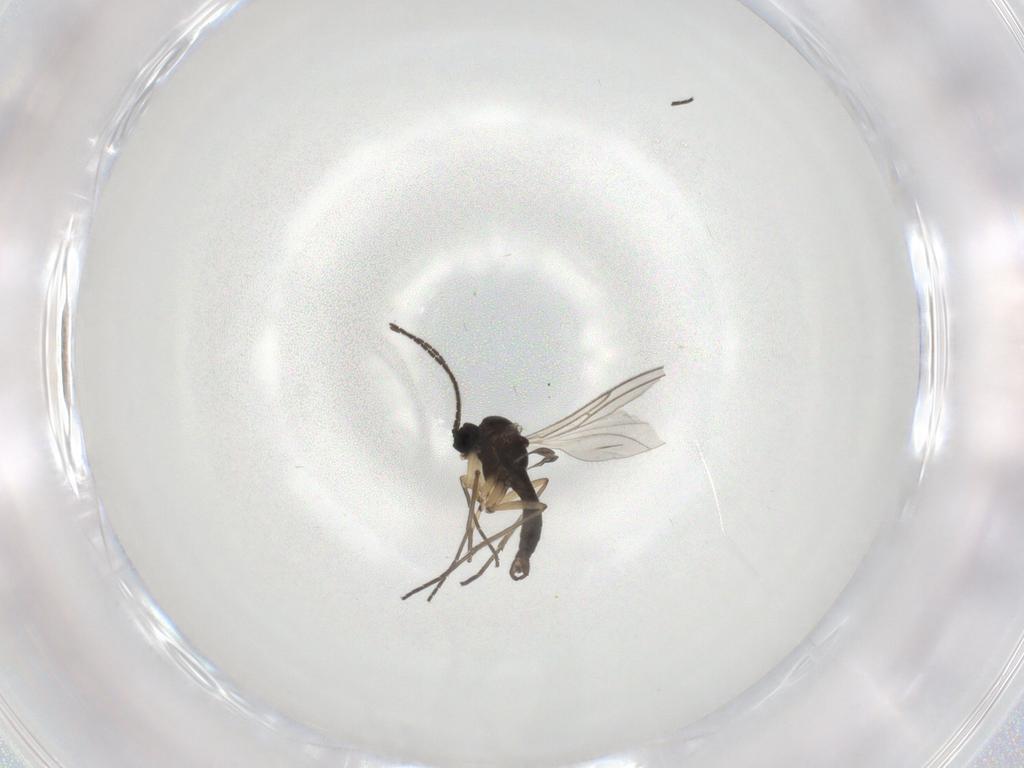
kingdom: Animalia
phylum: Arthropoda
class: Insecta
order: Diptera
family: Sciaridae
